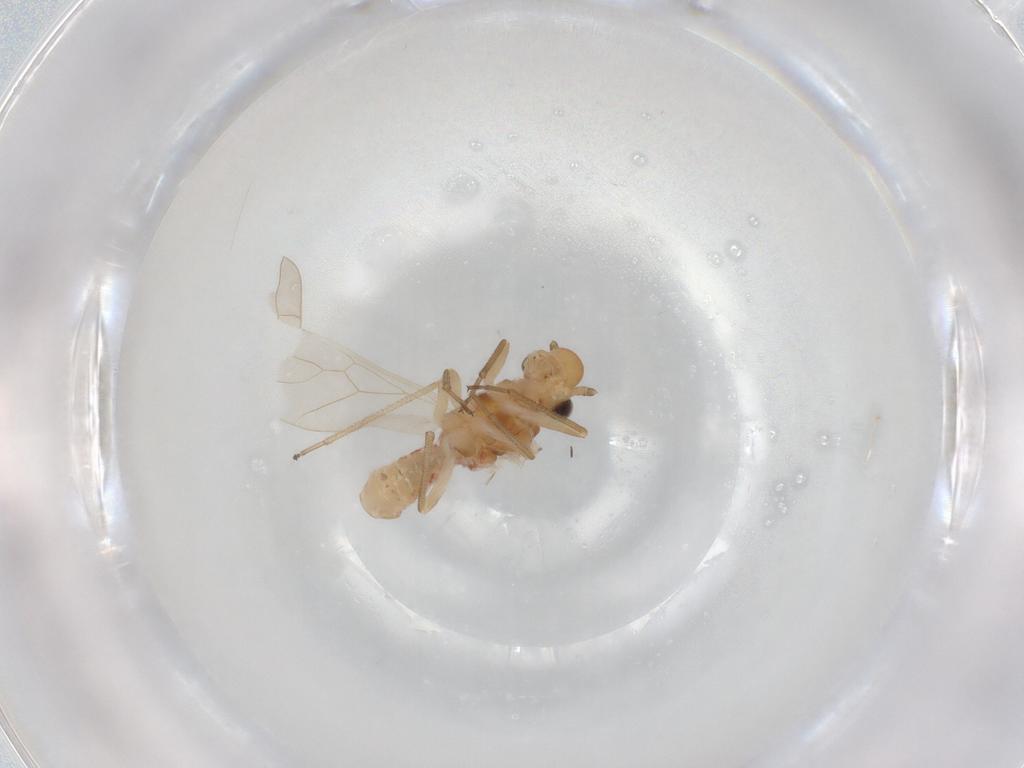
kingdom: Animalia
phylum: Arthropoda
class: Insecta
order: Psocodea
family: Caeciliusidae
